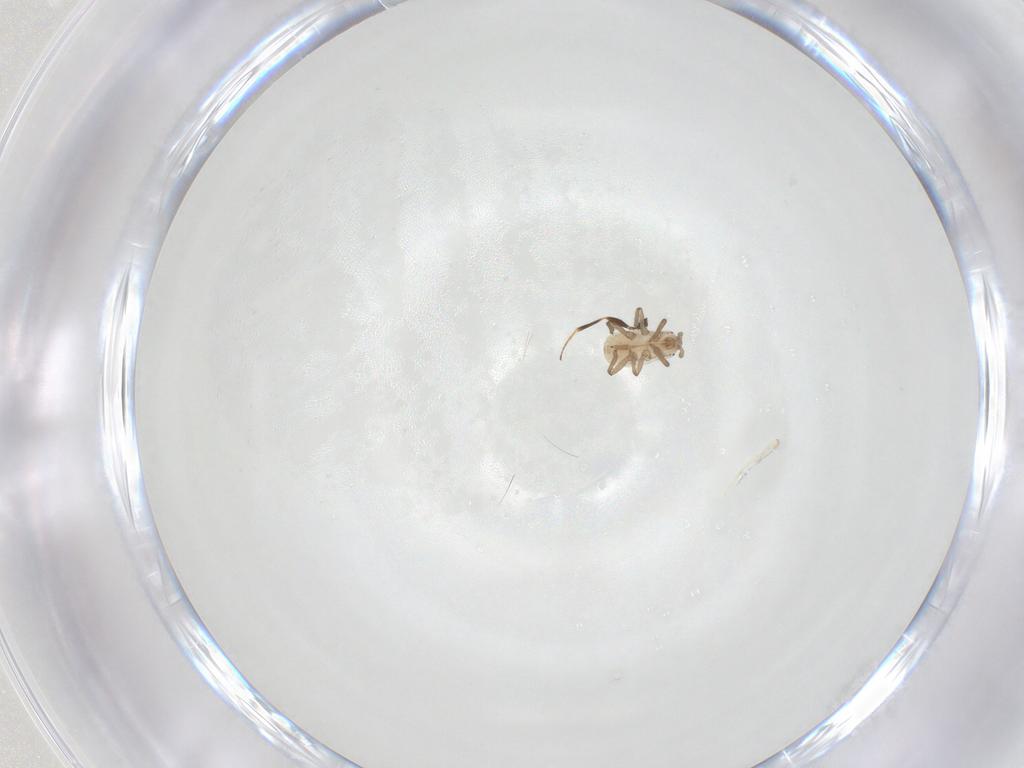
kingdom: Animalia
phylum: Arthropoda
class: Insecta
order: Hemiptera
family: Aphididae
